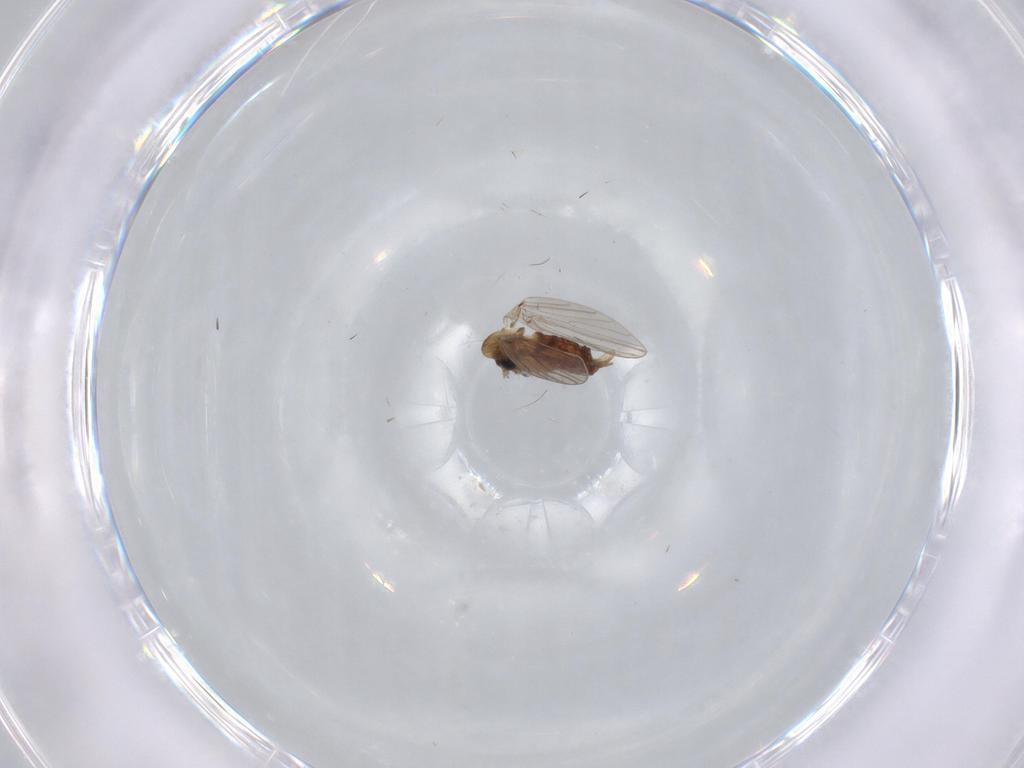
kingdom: Animalia
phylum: Arthropoda
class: Insecta
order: Diptera
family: Psychodidae
